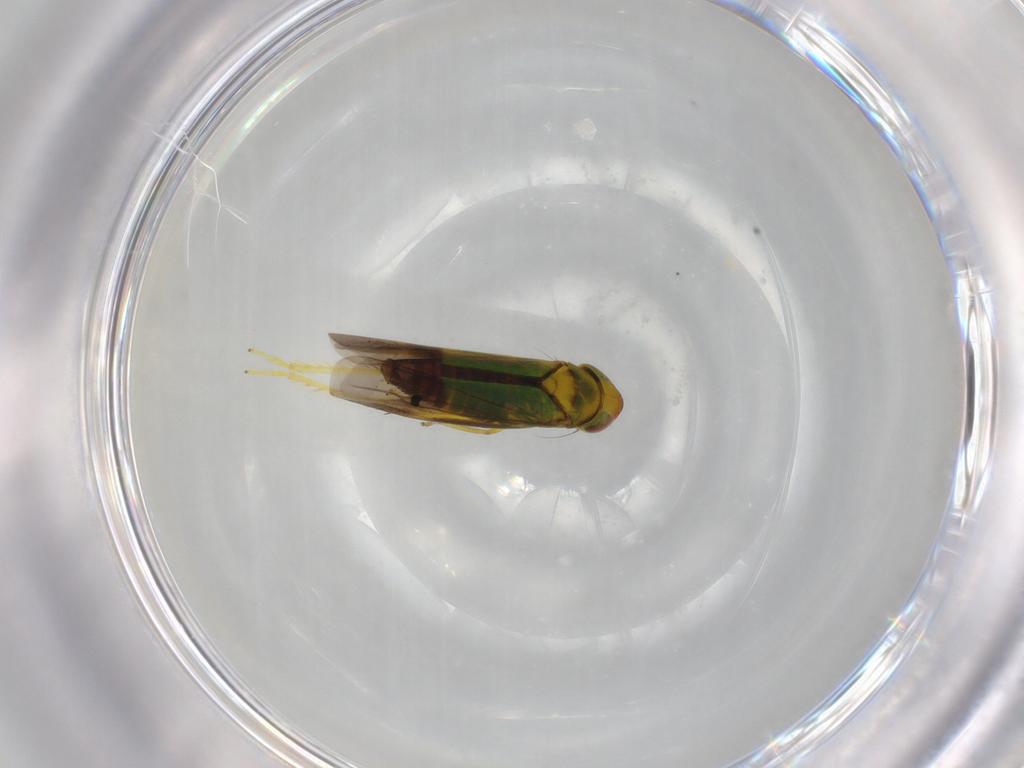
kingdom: Animalia
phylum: Arthropoda
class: Insecta
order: Hemiptera
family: Cicadellidae
